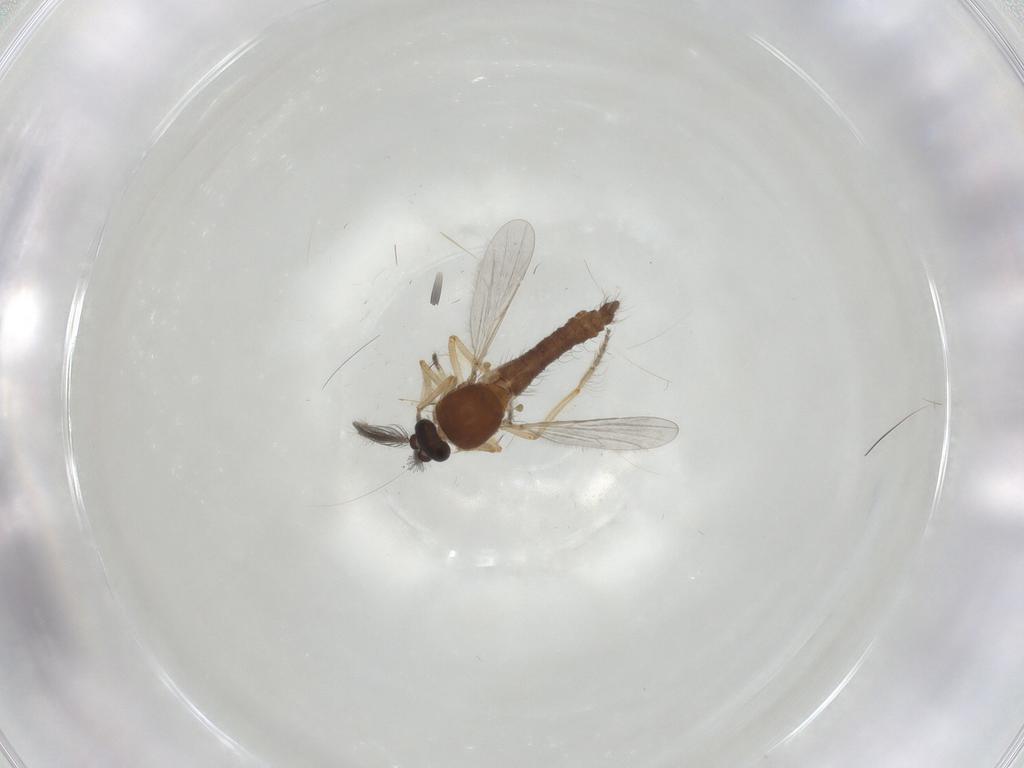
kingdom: Animalia
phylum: Arthropoda
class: Insecta
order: Diptera
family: Ceratopogonidae
